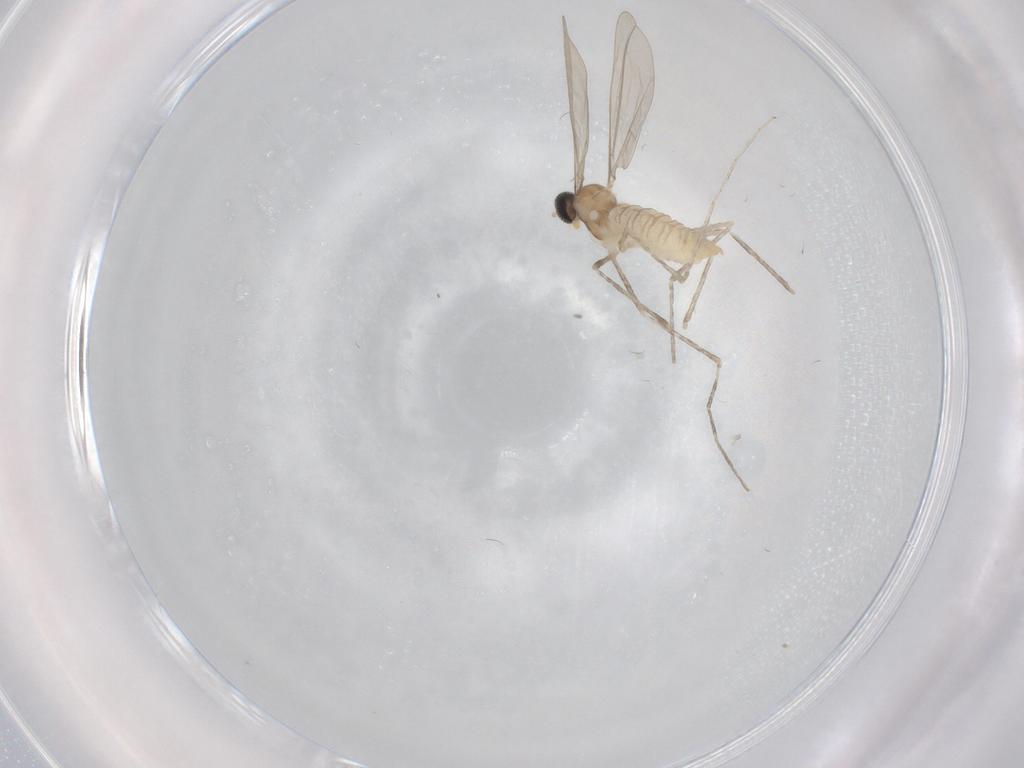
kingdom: Animalia
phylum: Arthropoda
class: Insecta
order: Diptera
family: Cecidomyiidae
